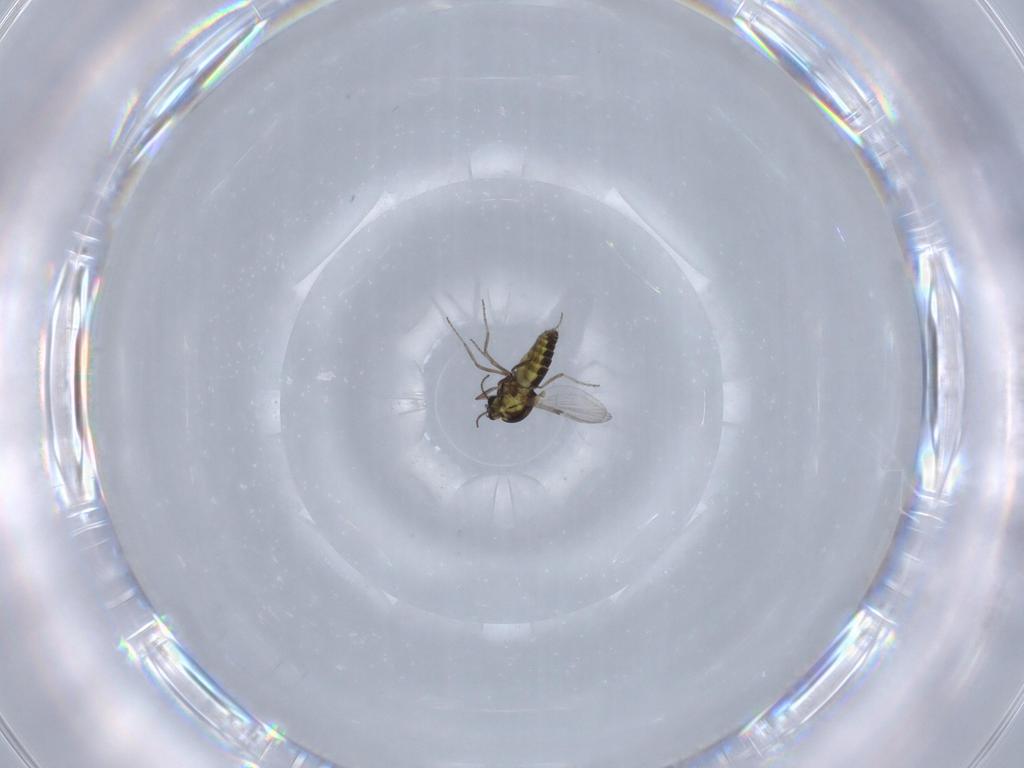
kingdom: Animalia
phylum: Arthropoda
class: Insecta
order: Diptera
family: Ceratopogonidae
